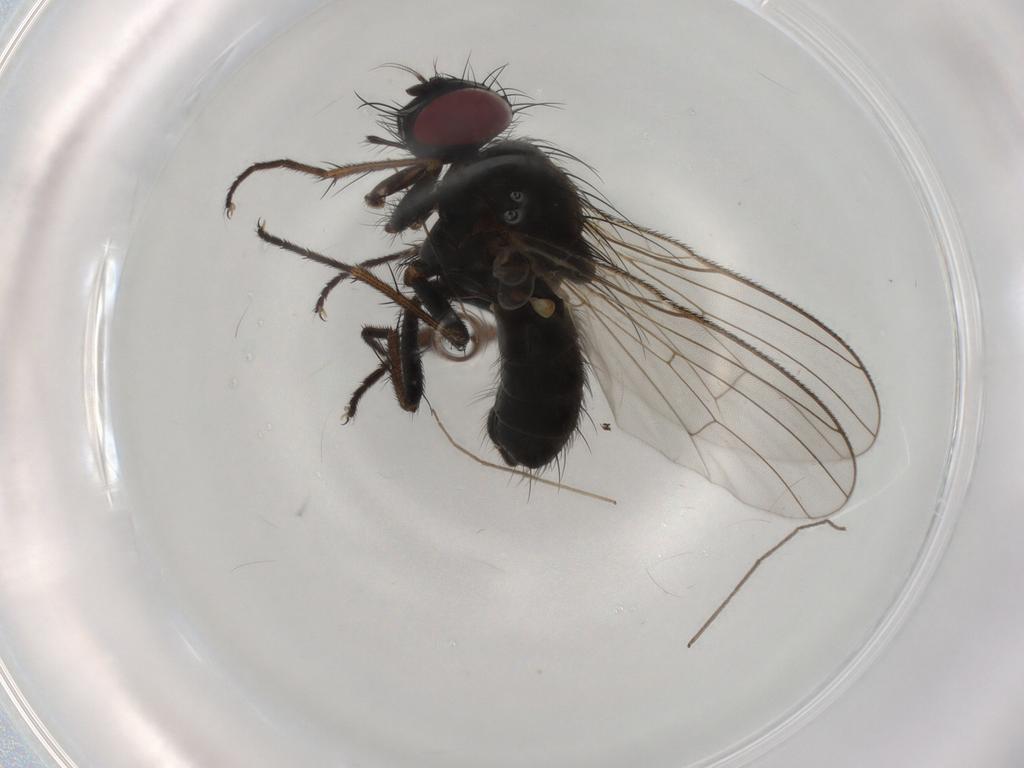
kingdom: Animalia
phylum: Arthropoda
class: Insecta
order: Diptera
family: Muscidae
